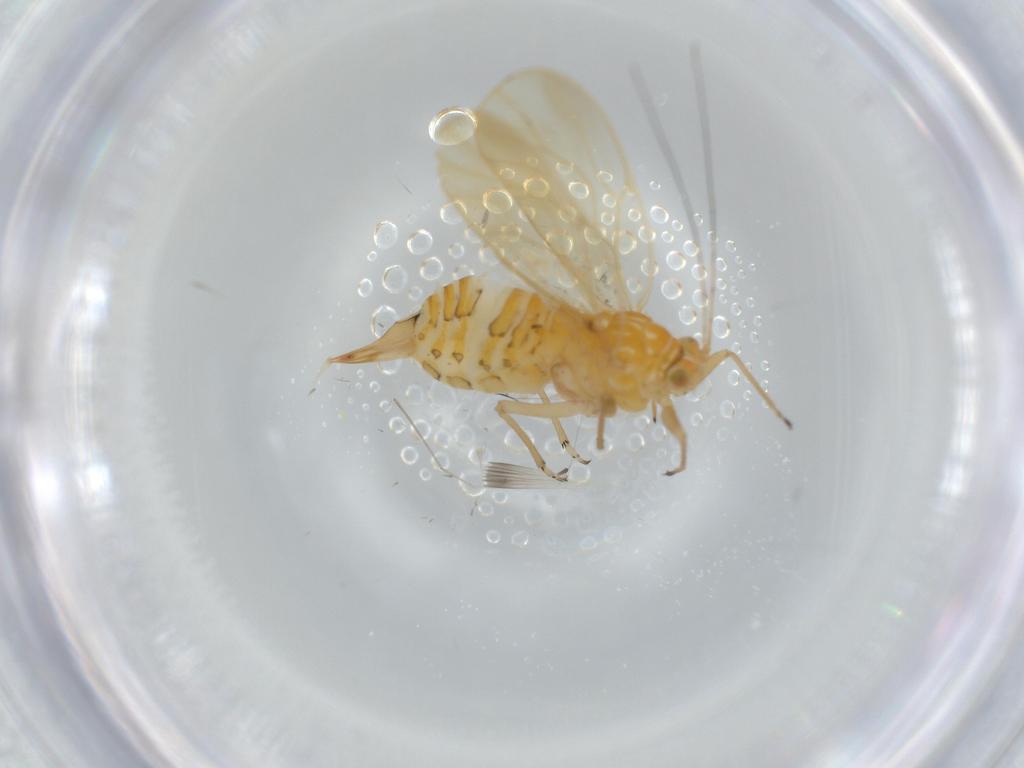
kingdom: Animalia
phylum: Arthropoda
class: Insecta
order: Hemiptera
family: Psyllidae
